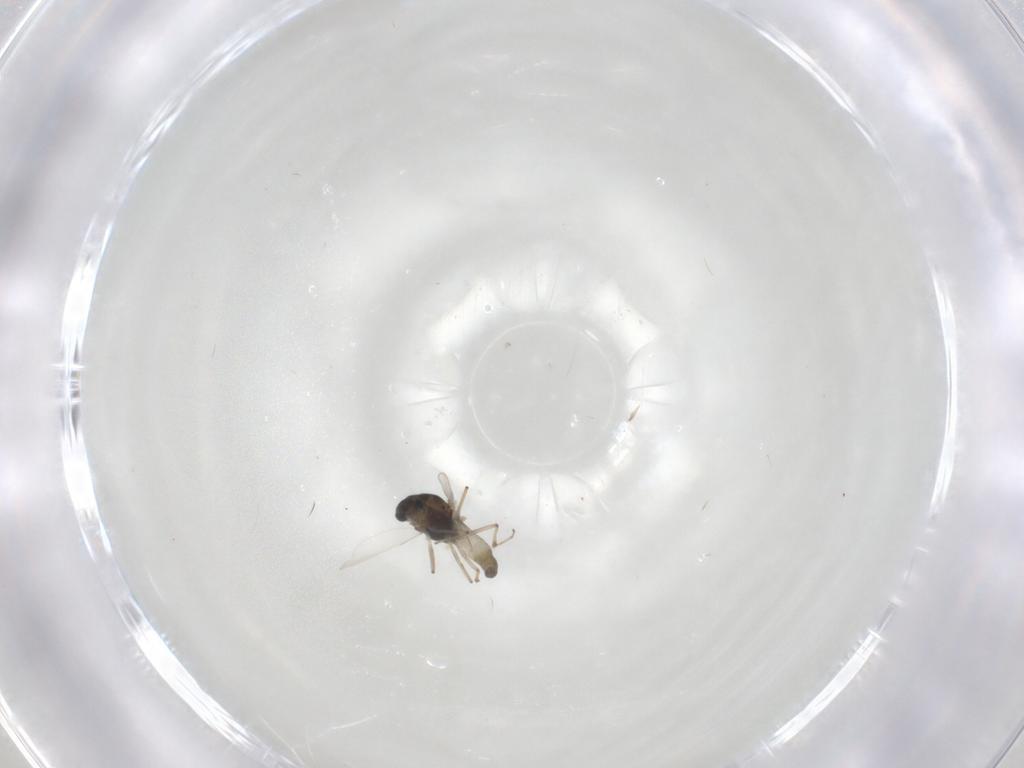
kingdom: Animalia
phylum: Arthropoda
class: Insecta
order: Diptera
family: Chironomidae
